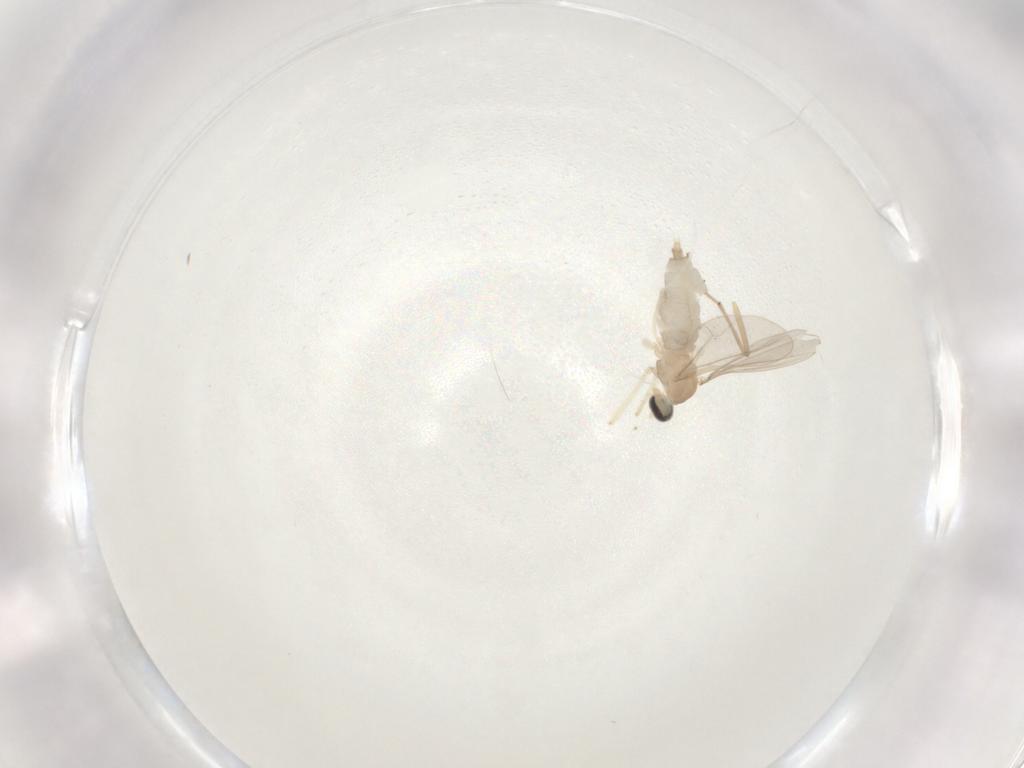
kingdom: Animalia
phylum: Arthropoda
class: Insecta
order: Diptera
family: Cecidomyiidae
